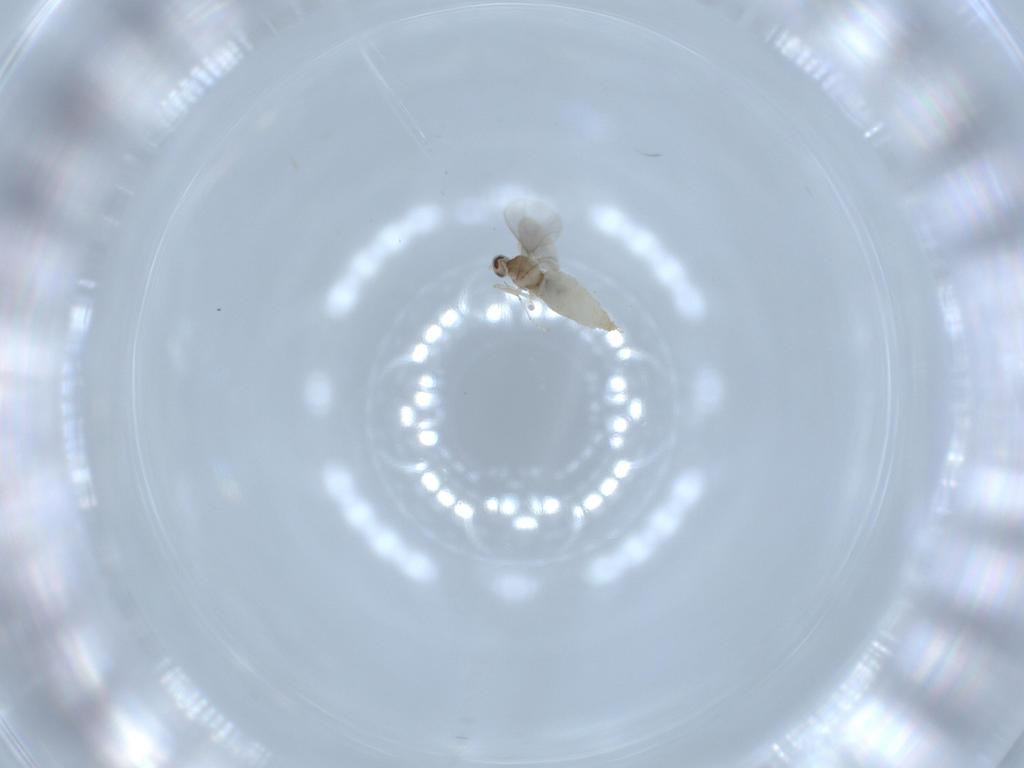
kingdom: Animalia
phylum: Arthropoda
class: Insecta
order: Diptera
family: Cecidomyiidae
